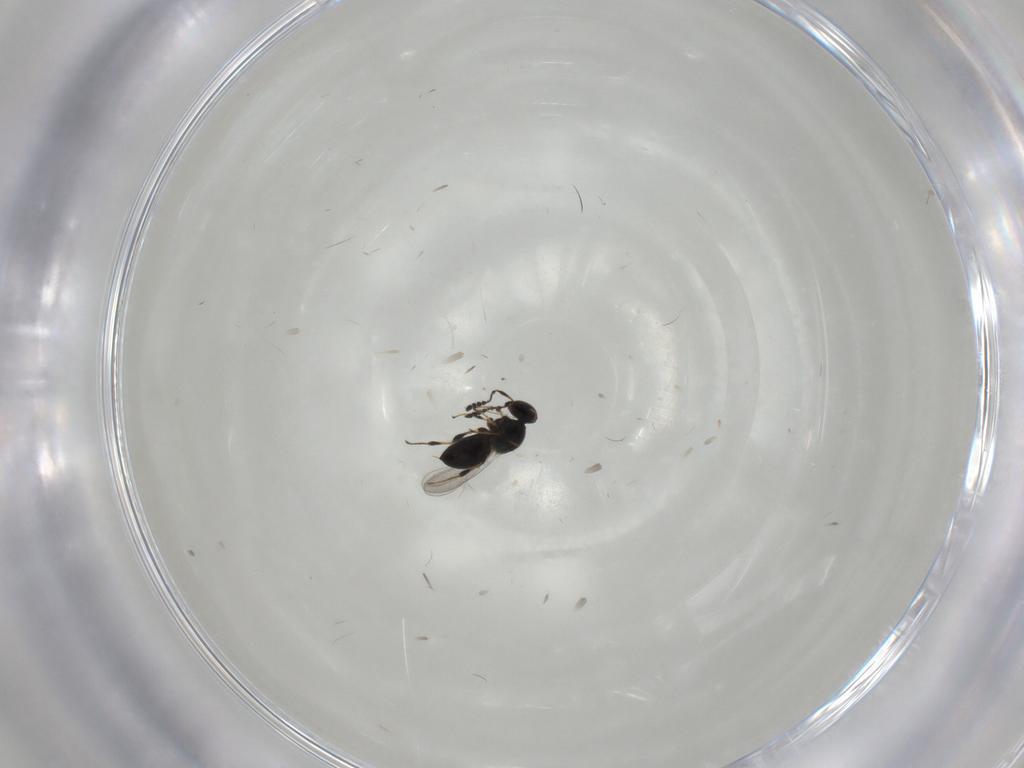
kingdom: Animalia
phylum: Arthropoda
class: Insecta
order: Hymenoptera
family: Platygastridae
